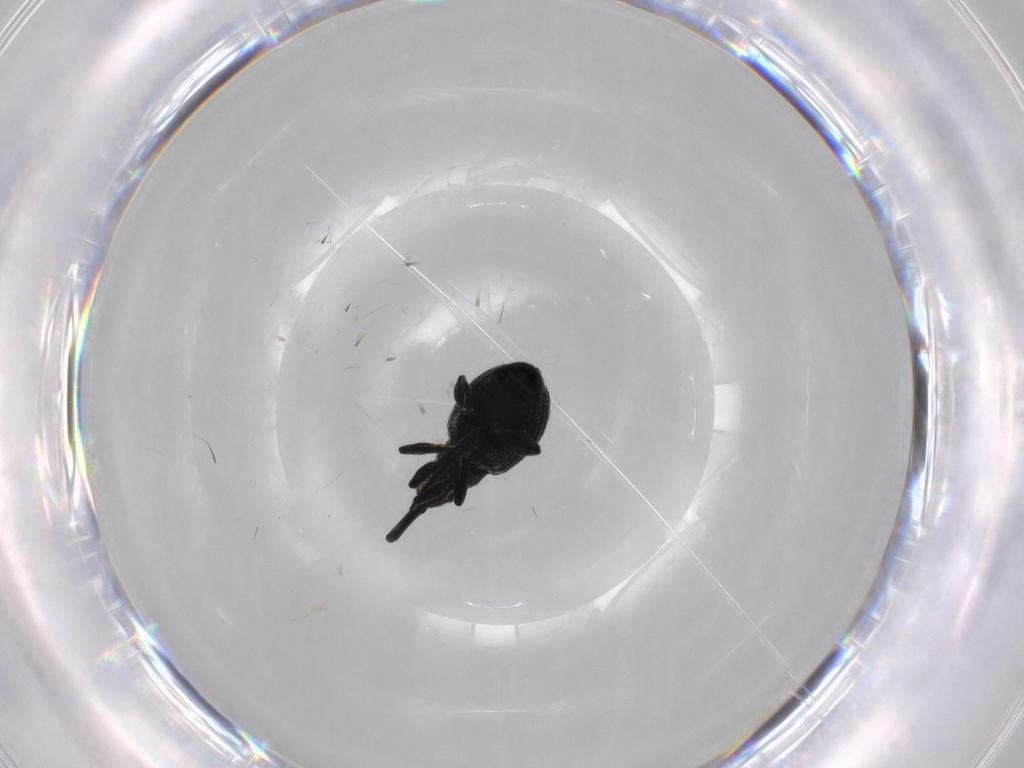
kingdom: Animalia
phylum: Arthropoda
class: Insecta
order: Coleoptera
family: Brentidae
